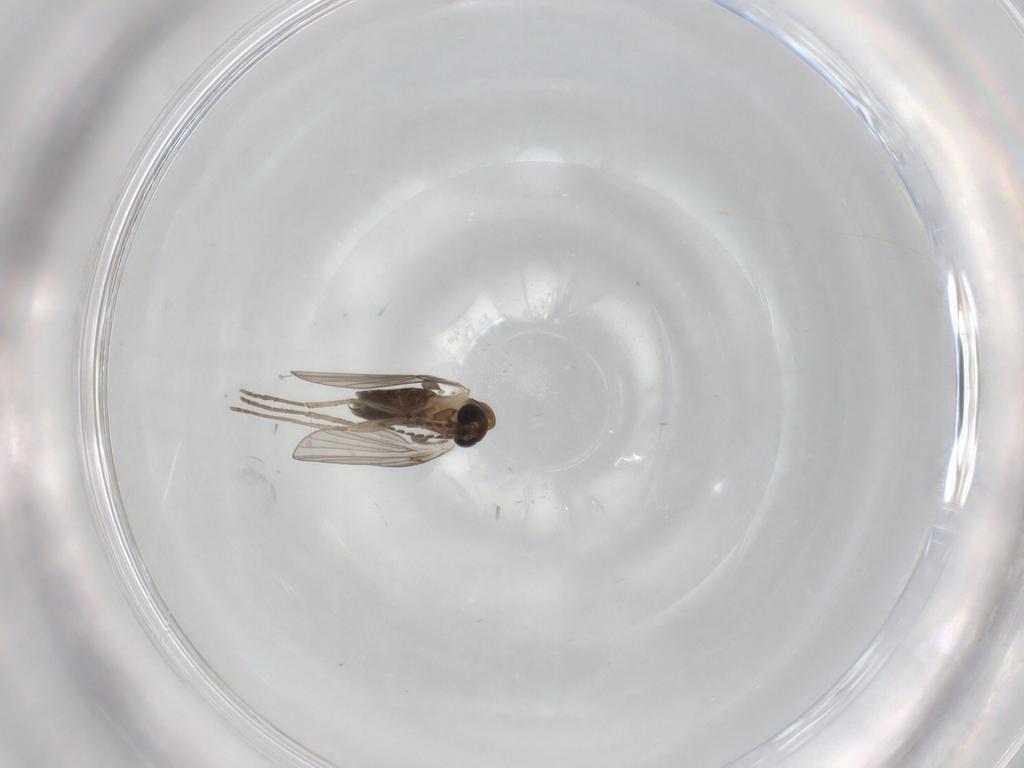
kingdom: Animalia
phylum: Arthropoda
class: Insecta
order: Diptera
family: Psychodidae
